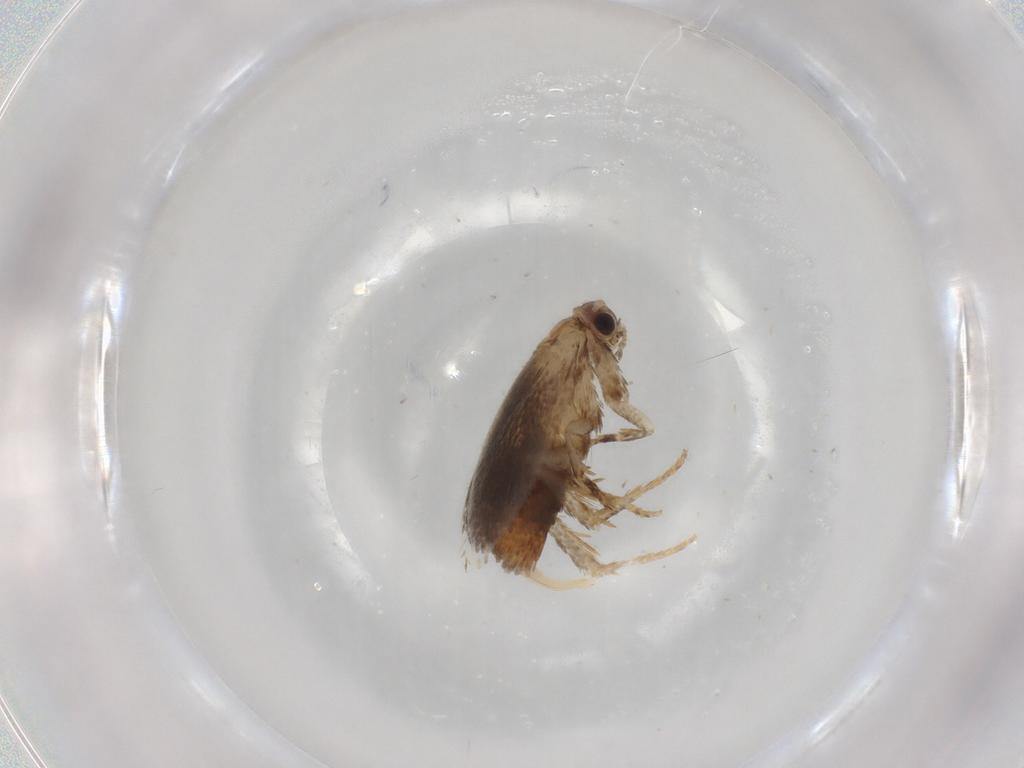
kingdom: Animalia
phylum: Arthropoda
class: Insecta
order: Lepidoptera
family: Tineidae
